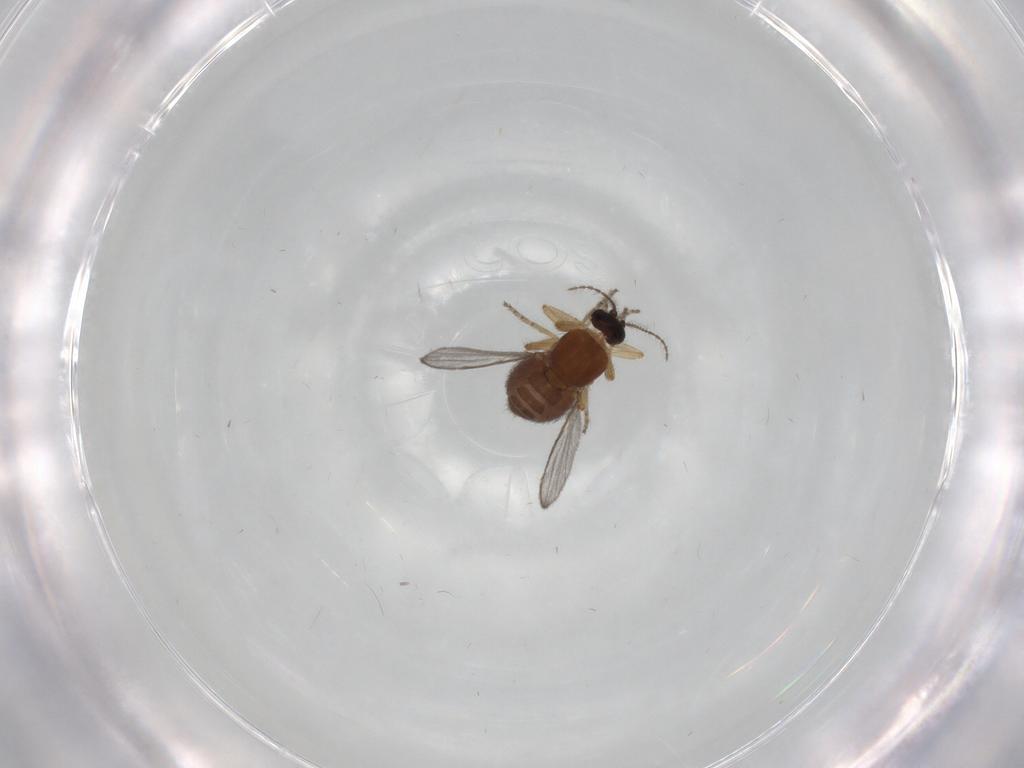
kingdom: Animalia
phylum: Arthropoda
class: Insecta
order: Diptera
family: Ceratopogonidae
